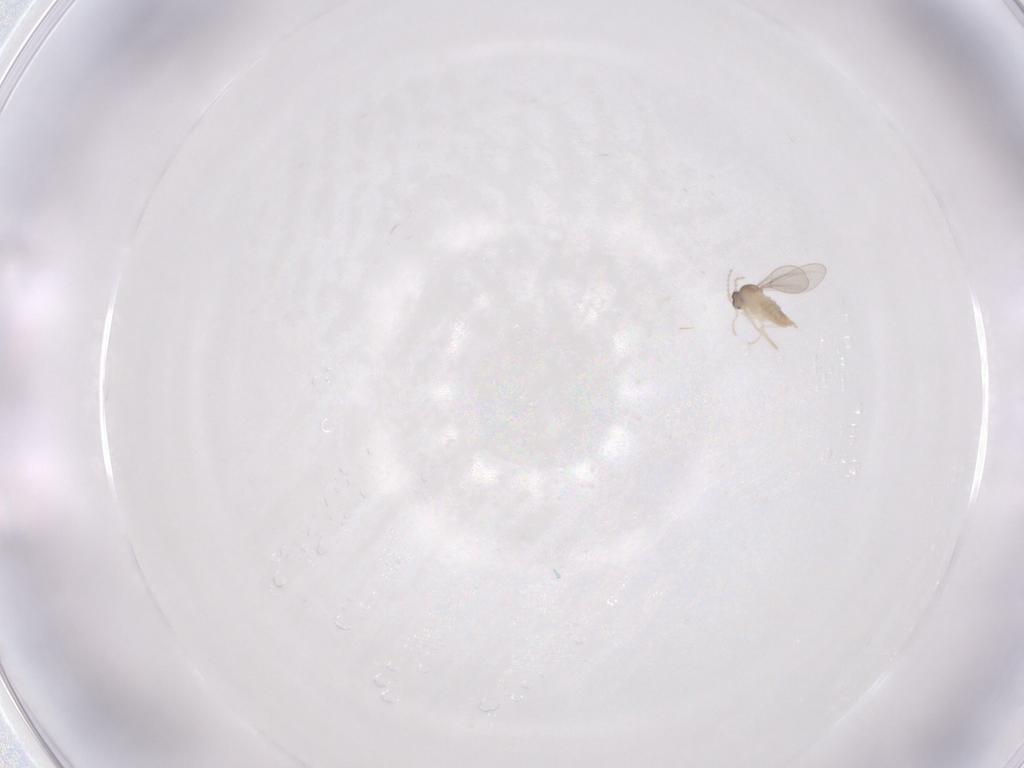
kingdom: Animalia
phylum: Arthropoda
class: Insecta
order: Diptera
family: Cecidomyiidae
